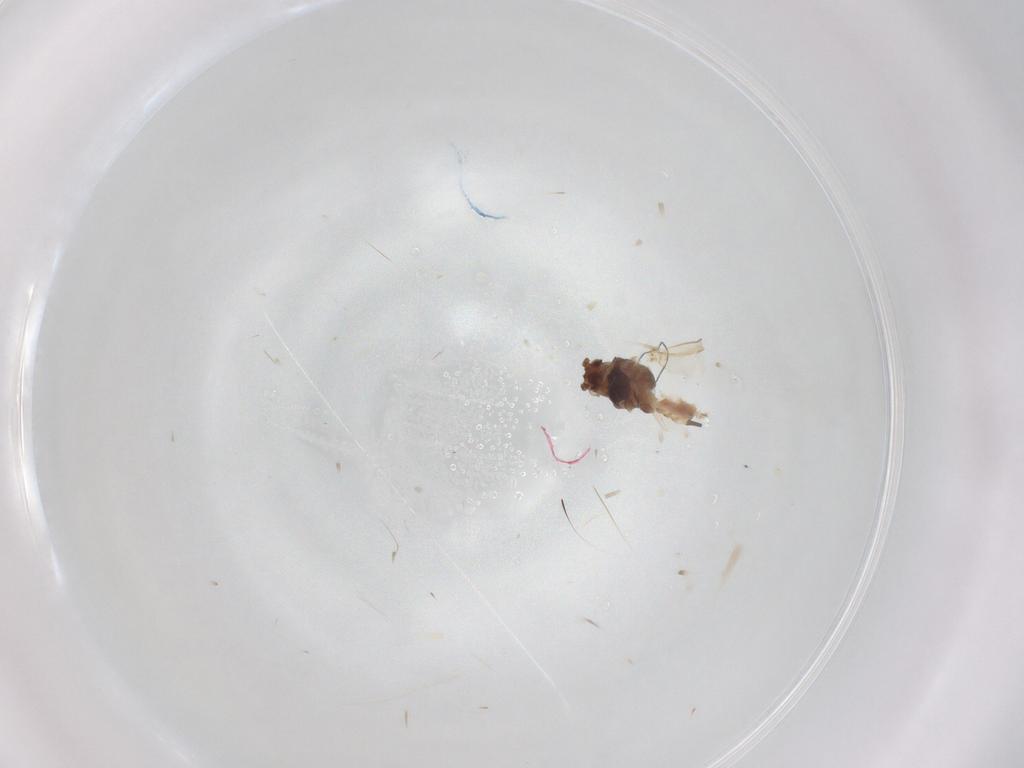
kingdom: Animalia
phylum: Arthropoda
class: Insecta
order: Hemiptera
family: Aphididae
